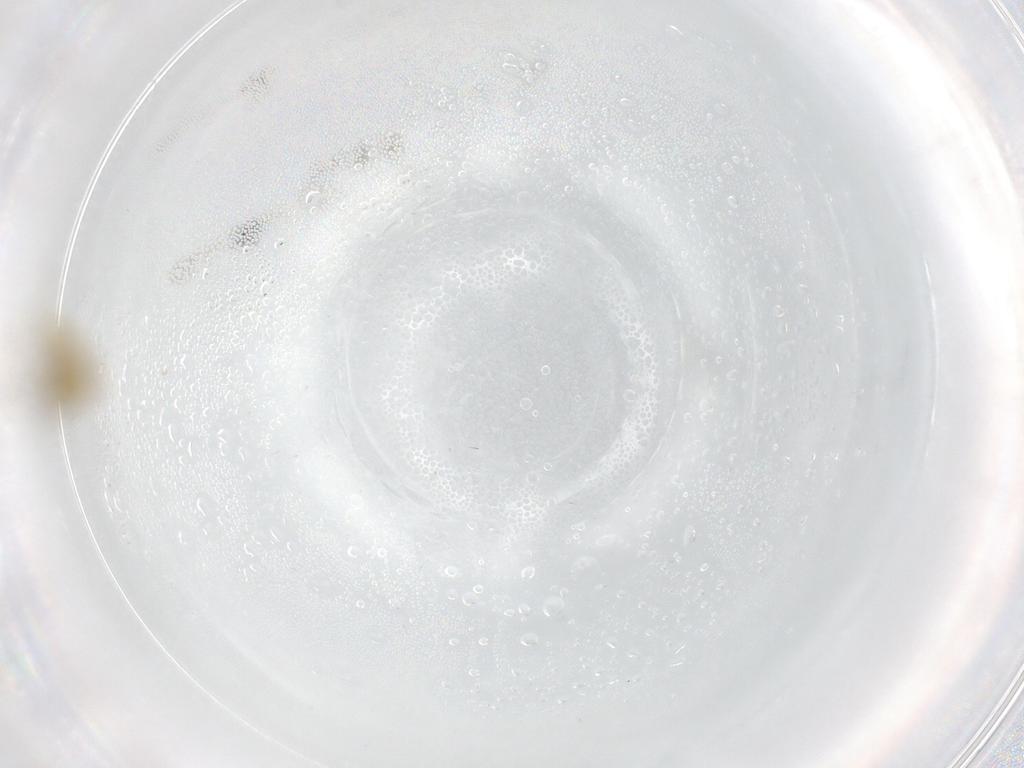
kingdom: Animalia
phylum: Arthropoda
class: Insecta
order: Diptera
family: Chironomidae
